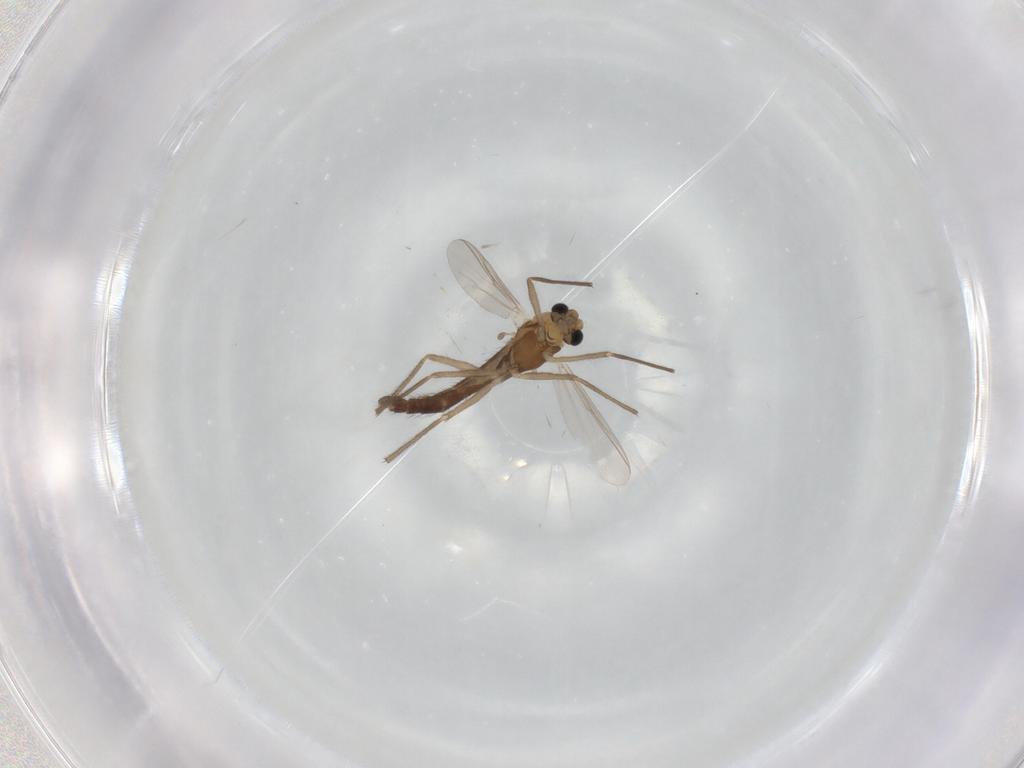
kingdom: Animalia
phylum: Arthropoda
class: Insecta
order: Diptera
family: Chironomidae
